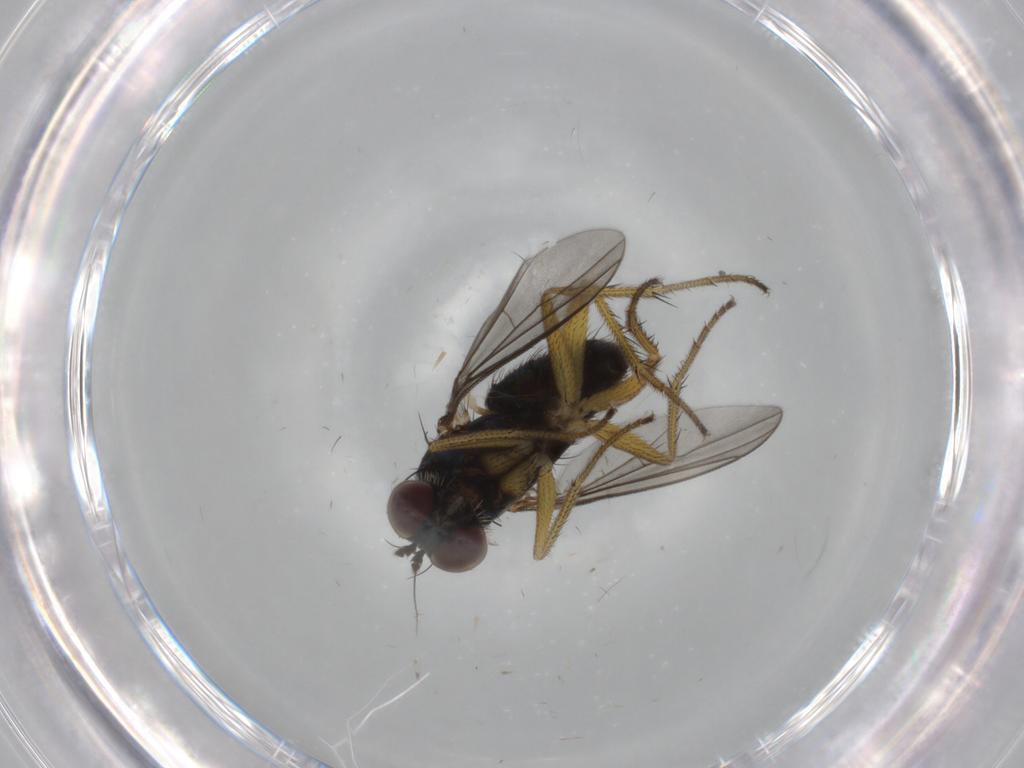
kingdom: Animalia
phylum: Arthropoda
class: Insecta
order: Diptera
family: Dolichopodidae
